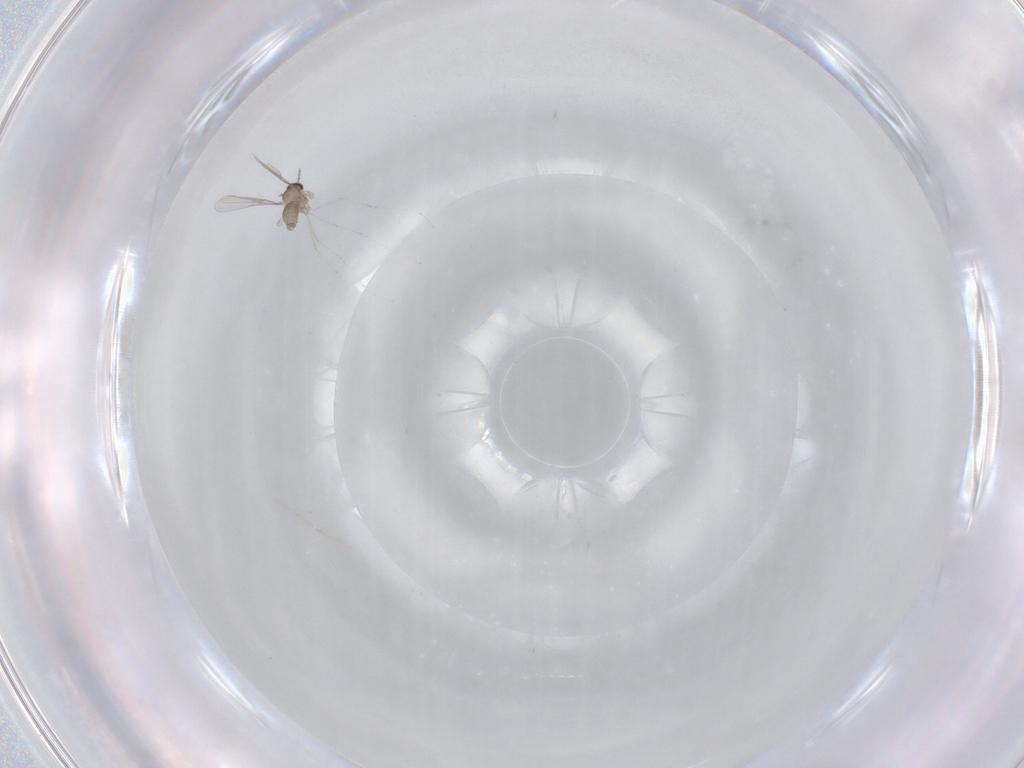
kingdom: Animalia
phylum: Arthropoda
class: Insecta
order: Diptera
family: Cecidomyiidae
